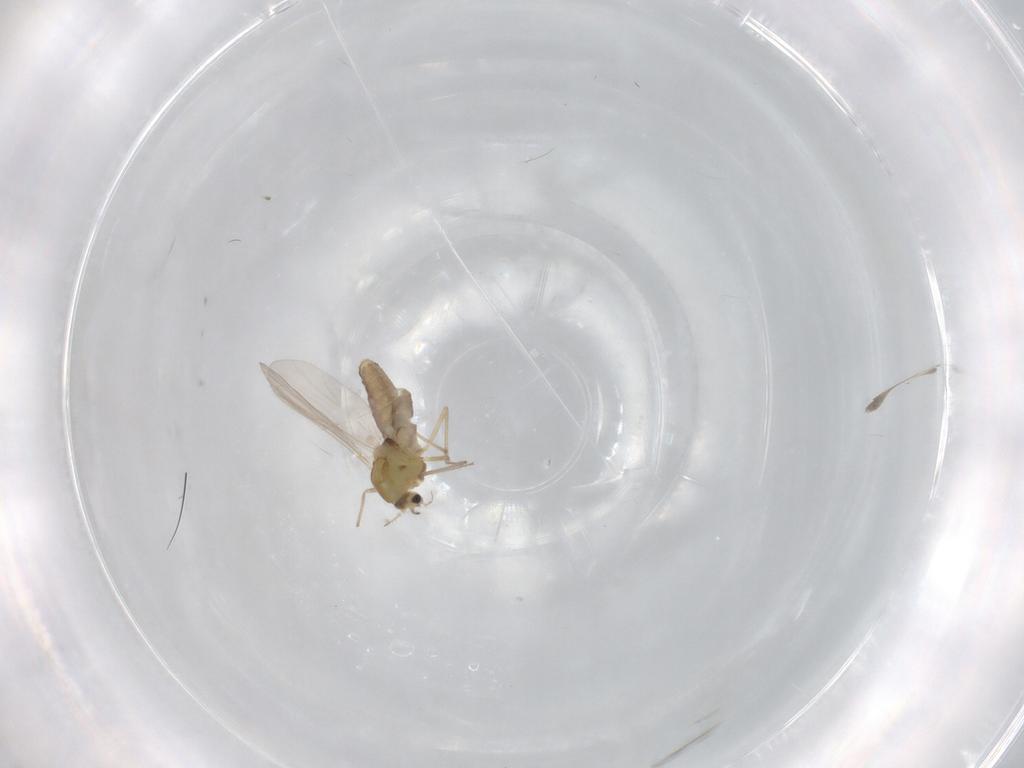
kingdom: Animalia
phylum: Arthropoda
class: Insecta
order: Diptera
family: Chironomidae
